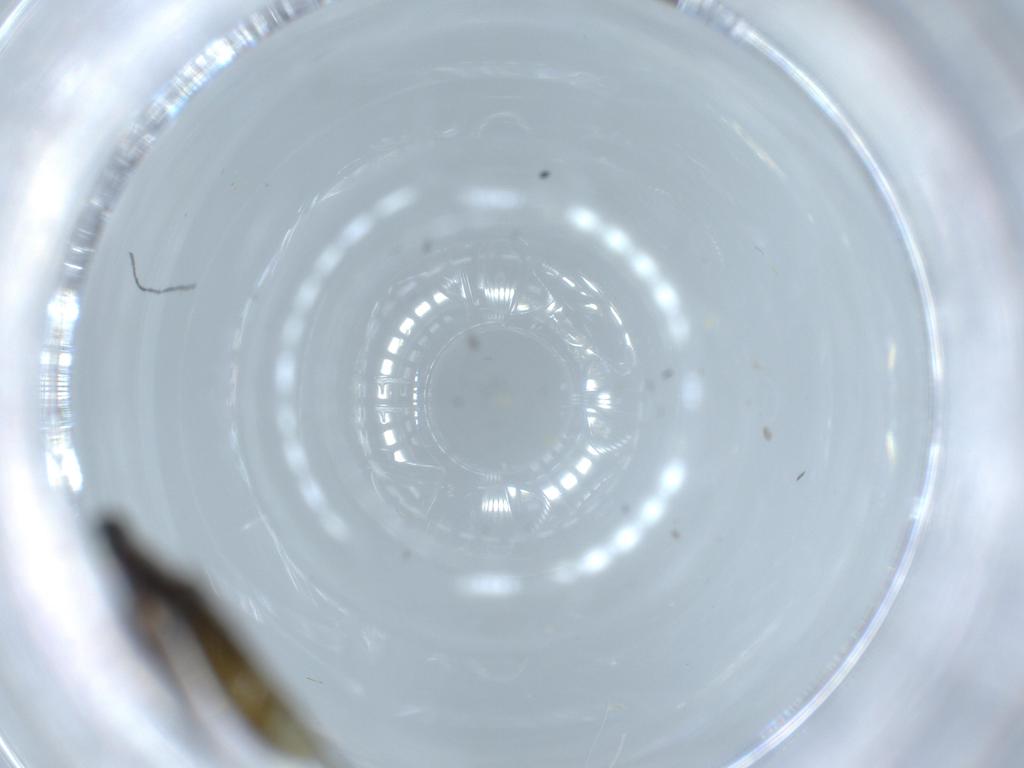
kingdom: Animalia
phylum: Arthropoda
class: Insecta
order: Diptera
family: Sciaridae
